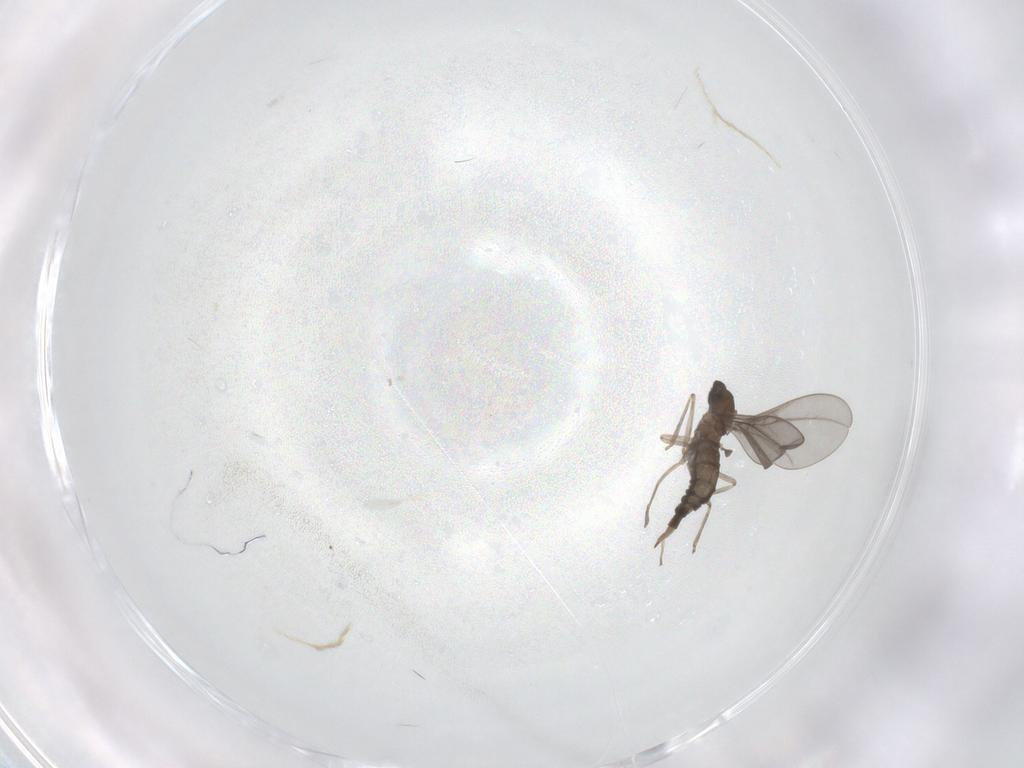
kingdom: Animalia
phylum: Arthropoda
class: Insecta
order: Diptera
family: Cecidomyiidae
